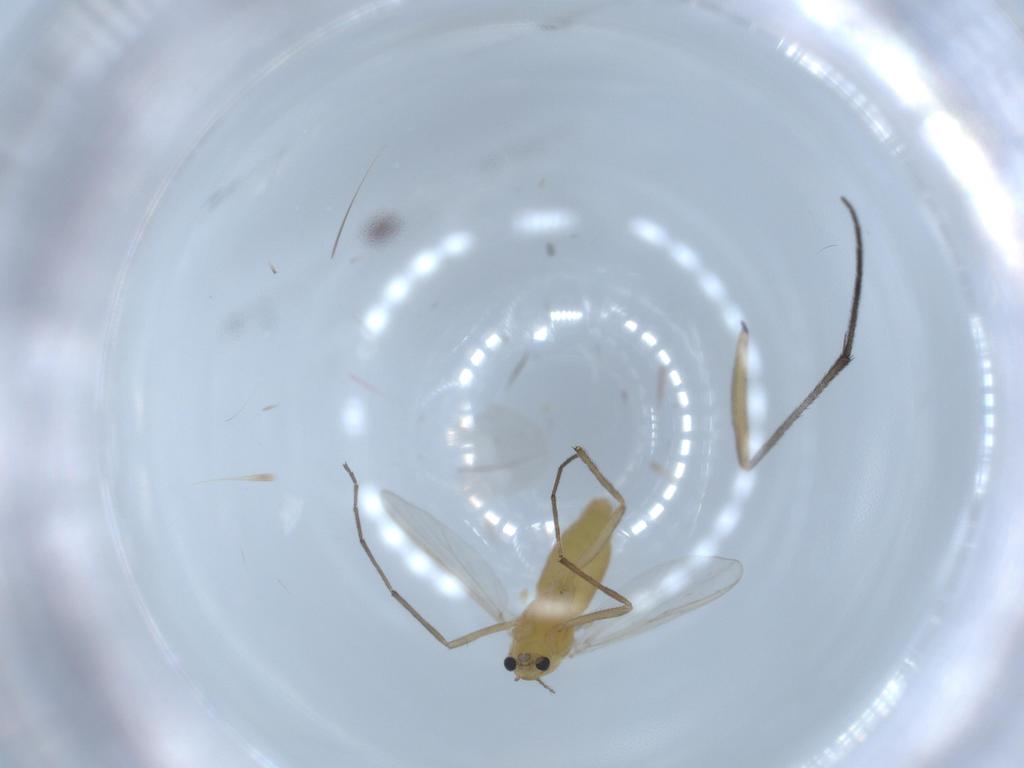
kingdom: Animalia
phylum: Arthropoda
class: Insecta
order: Diptera
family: Chironomidae
